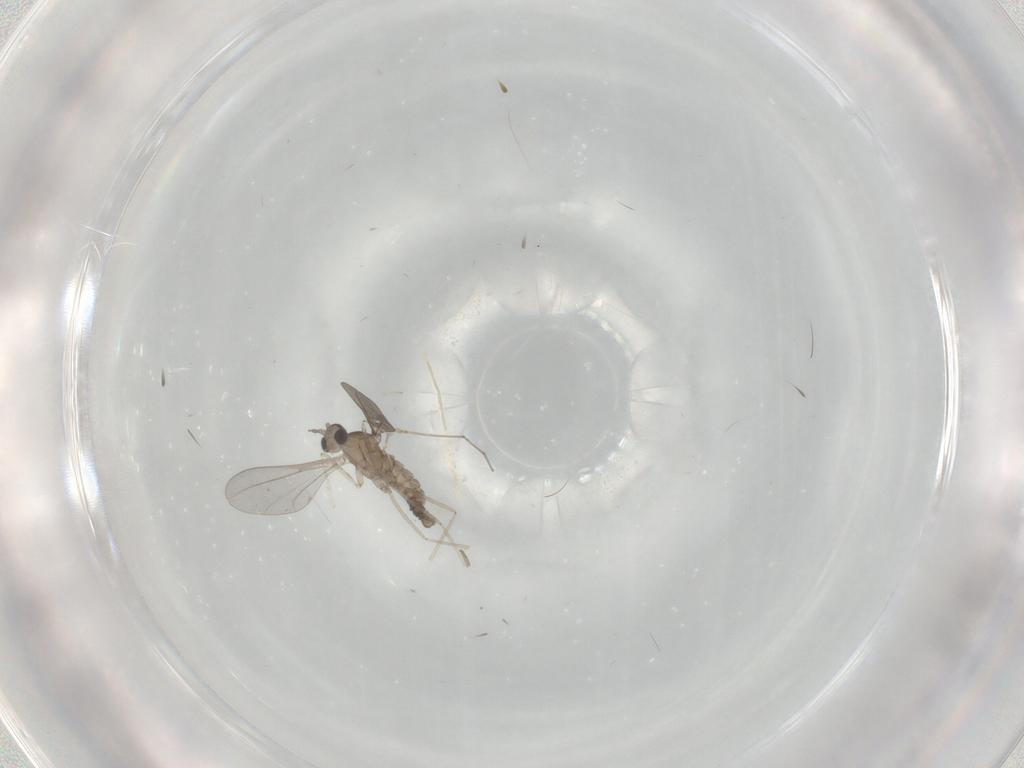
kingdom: Animalia
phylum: Arthropoda
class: Insecta
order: Diptera
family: Cecidomyiidae
